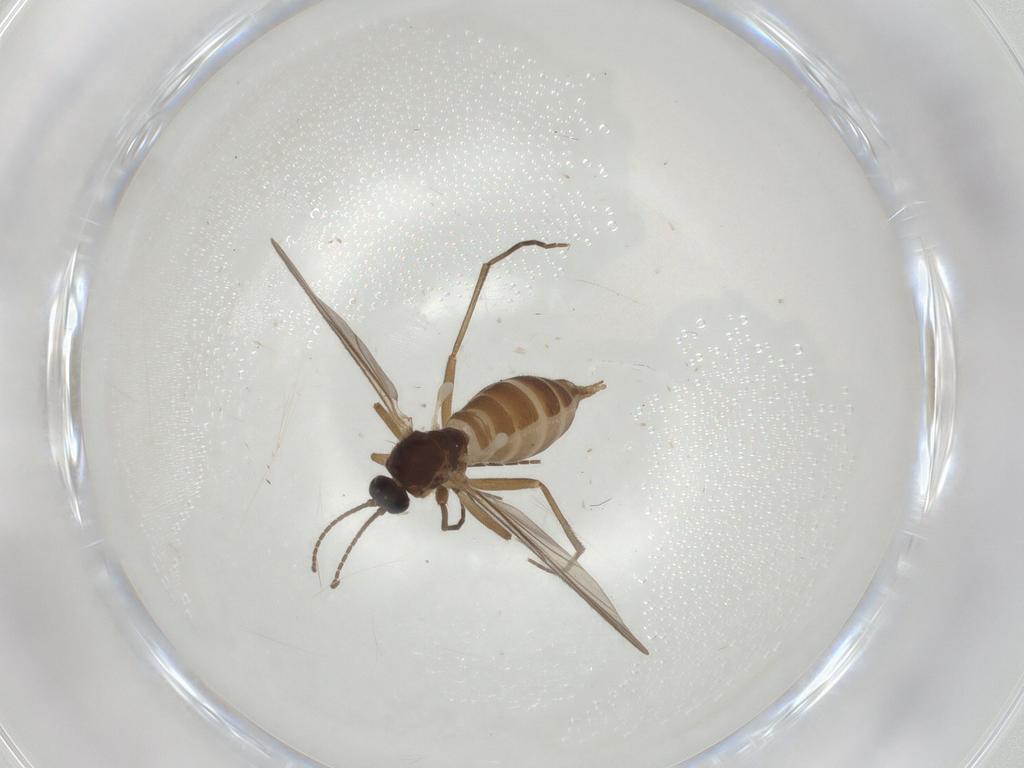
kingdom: Animalia
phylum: Arthropoda
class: Insecta
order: Diptera
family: Sciaridae
